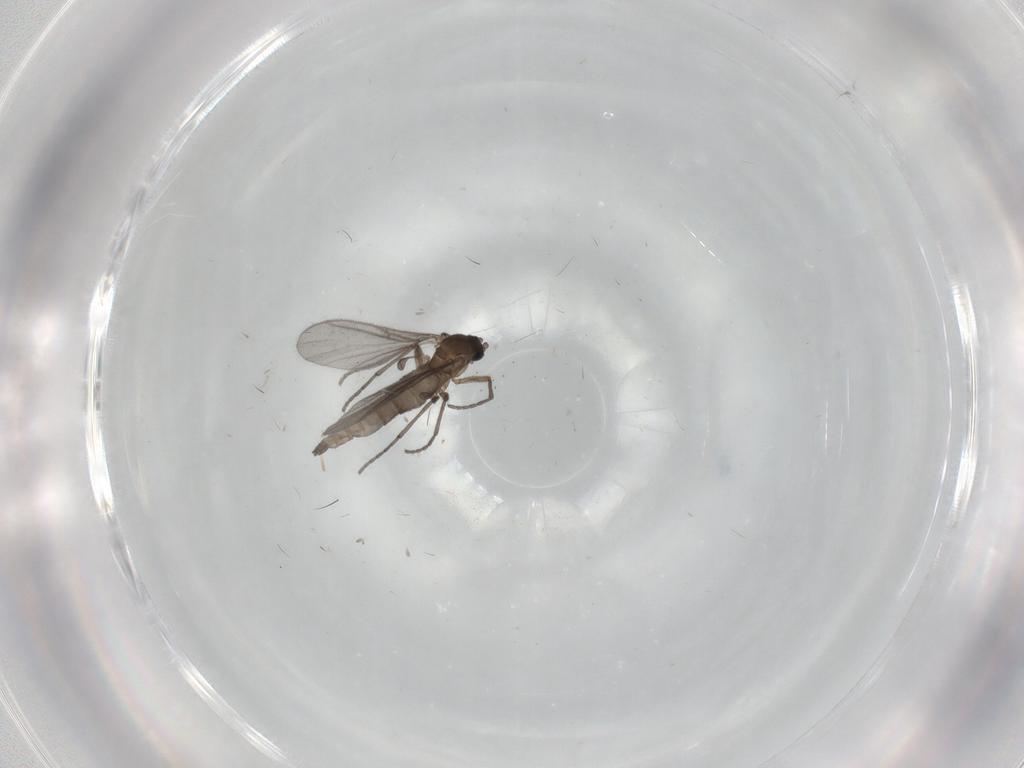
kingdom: Animalia
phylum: Arthropoda
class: Insecta
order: Diptera
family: Sciaridae
